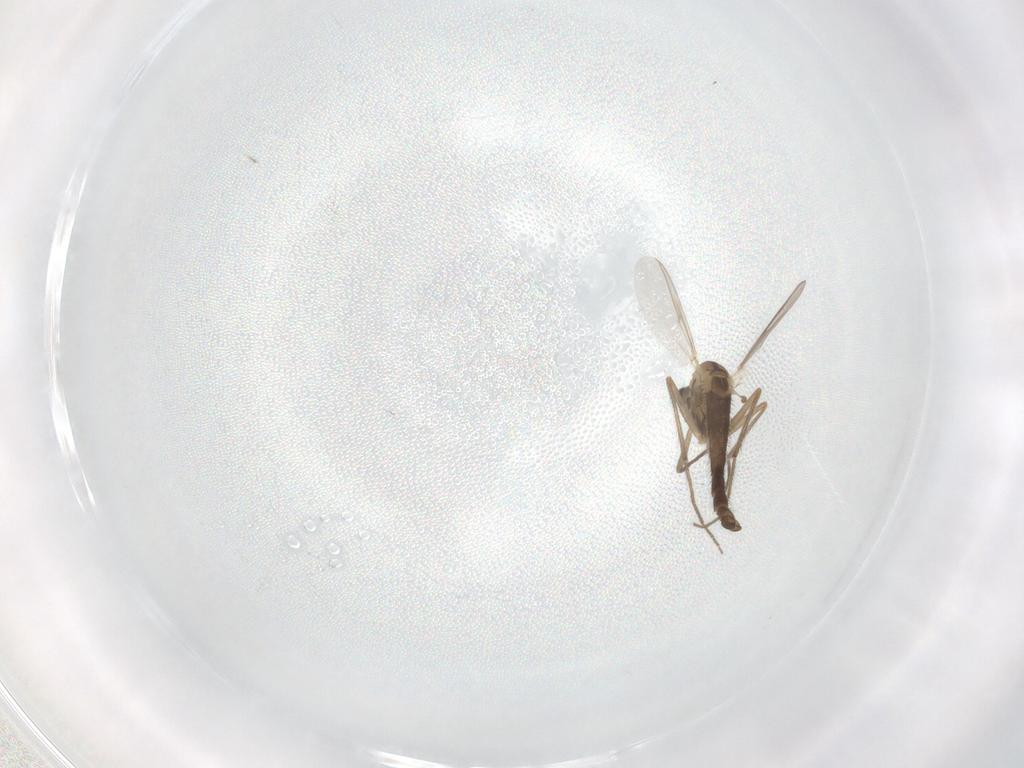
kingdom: Animalia
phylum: Arthropoda
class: Insecta
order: Diptera
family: Chironomidae
